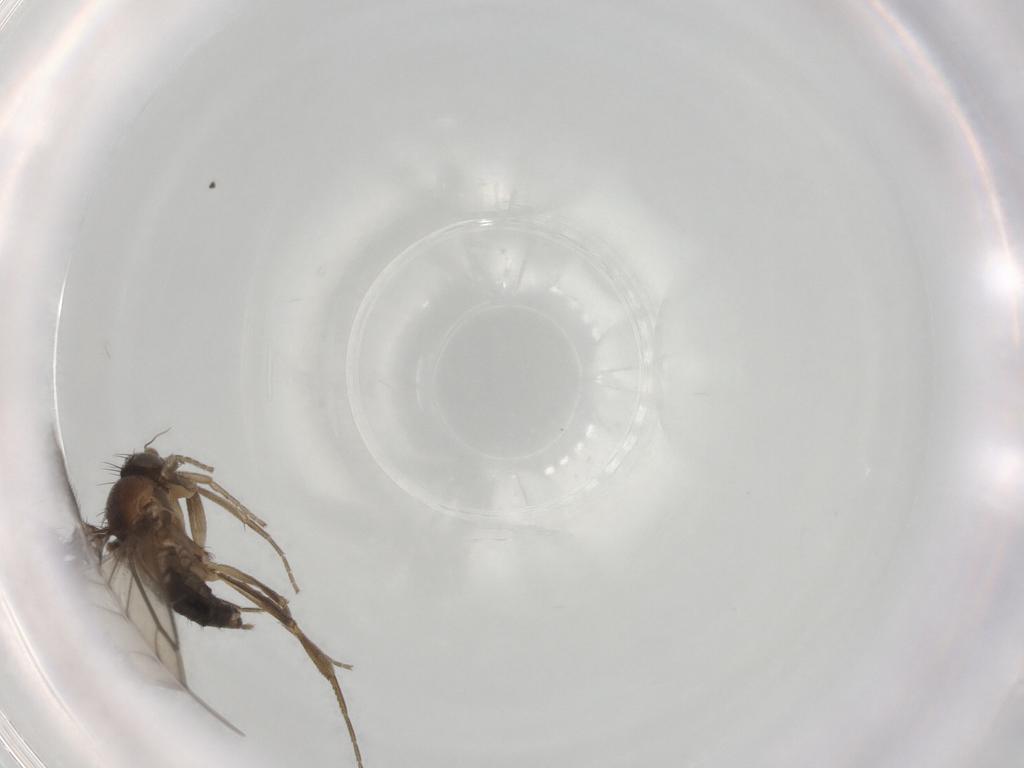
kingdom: Animalia
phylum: Arthropoda
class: Insecta
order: Diptera
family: Phoridae
